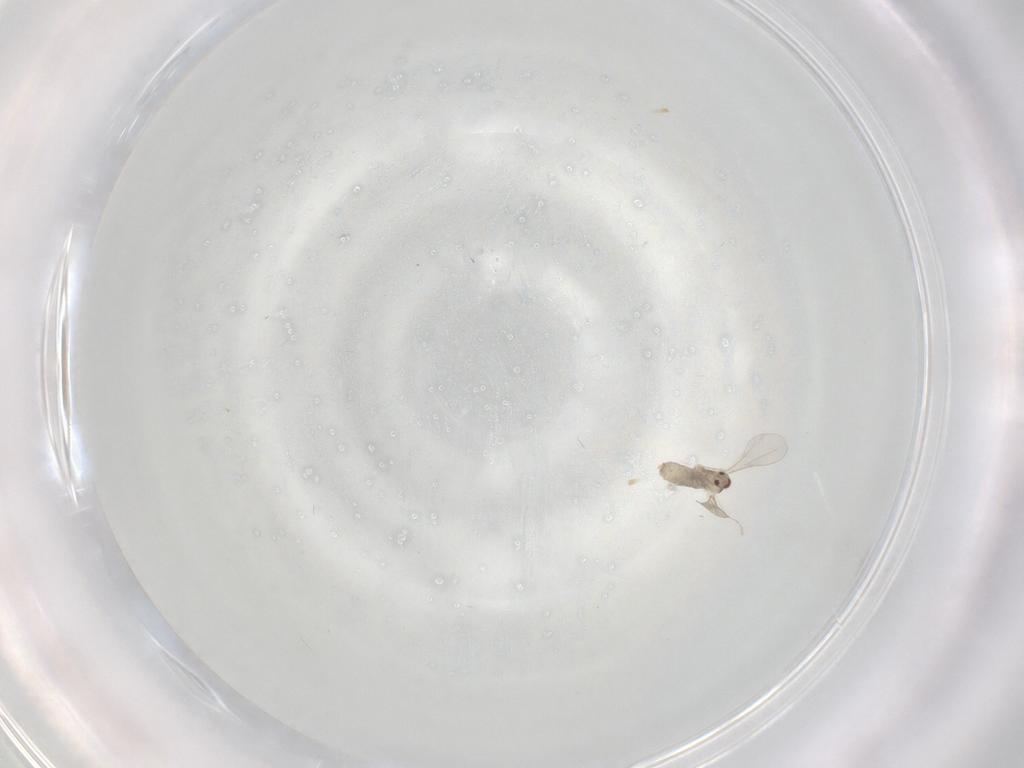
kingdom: Animalia
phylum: Arthropoda
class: Insecta
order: Diptera
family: Cecidomyiidae
